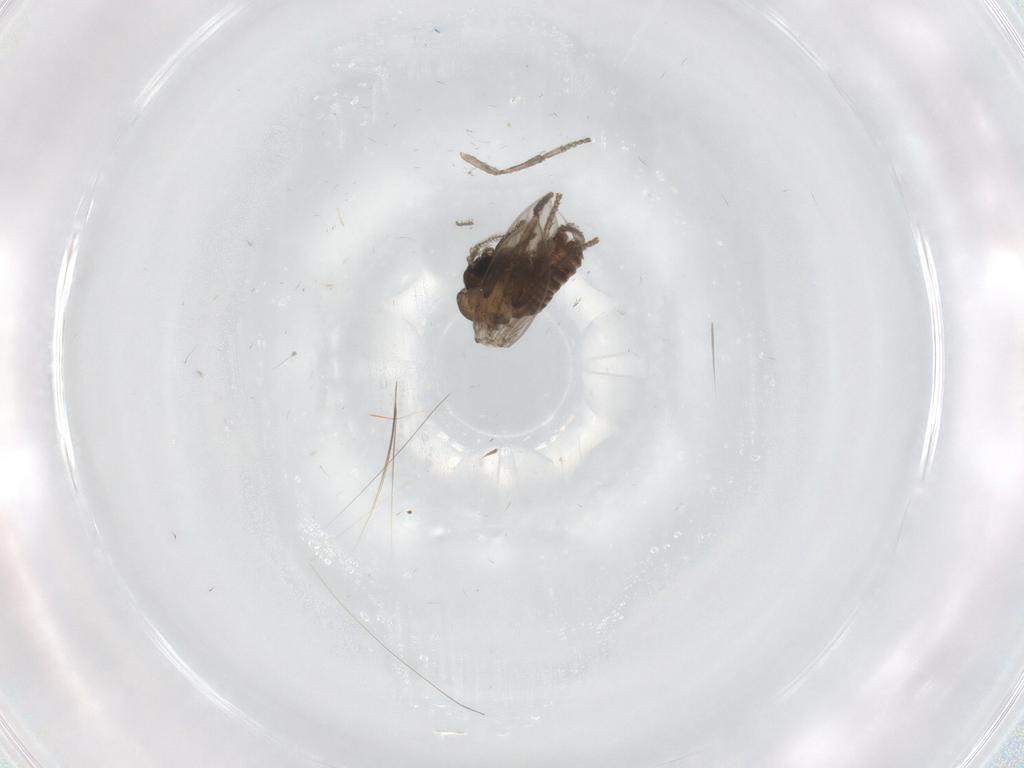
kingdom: Animalia
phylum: Arthropoda
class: Insecta
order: Diptera
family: Psychodidae
